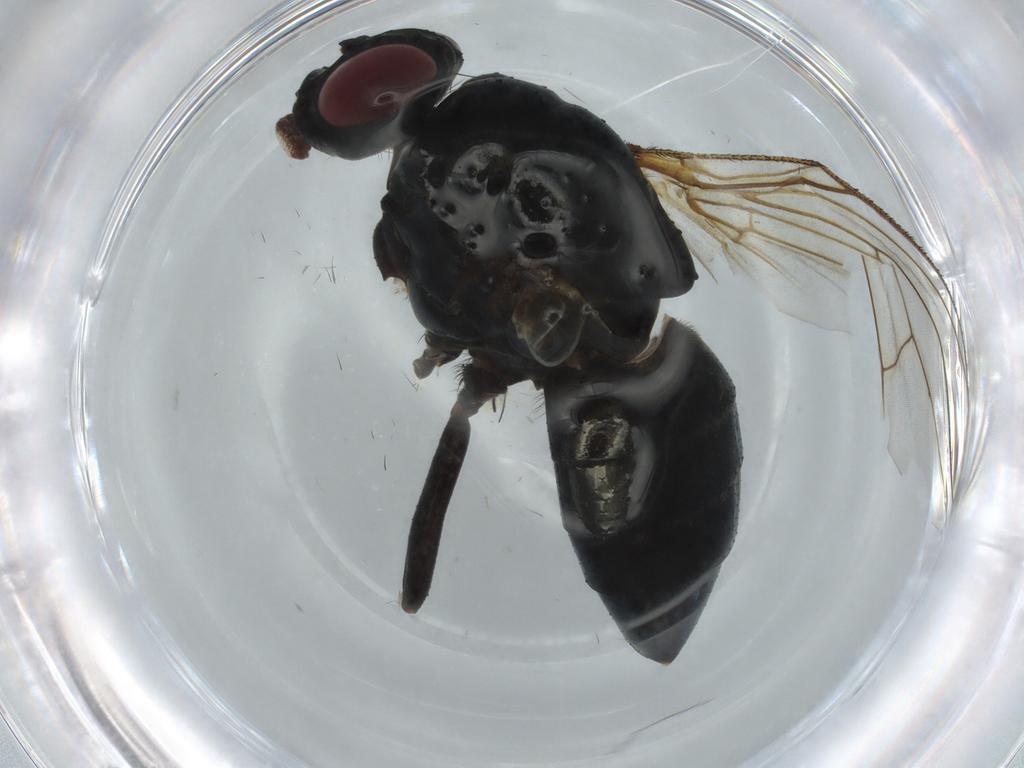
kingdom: Animalia
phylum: Arthropoda
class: Insecta
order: Diptera
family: Muscidae
